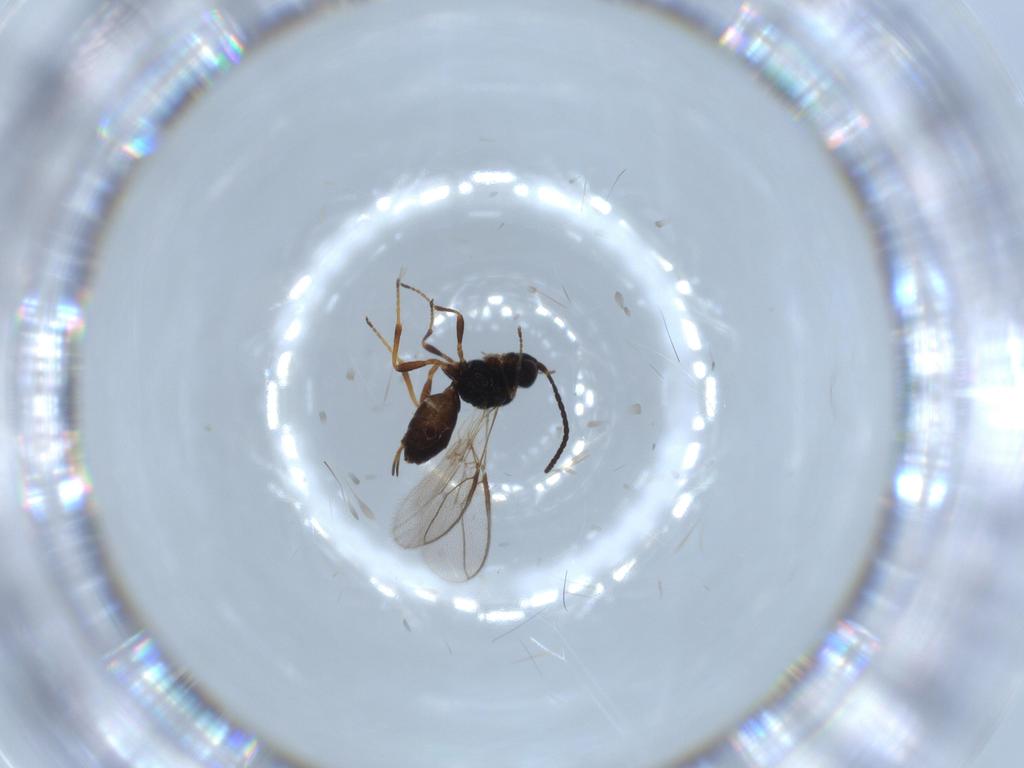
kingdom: Animalia
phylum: Arthropoda
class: Insecta
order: Hymenoptera
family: Braconidae
